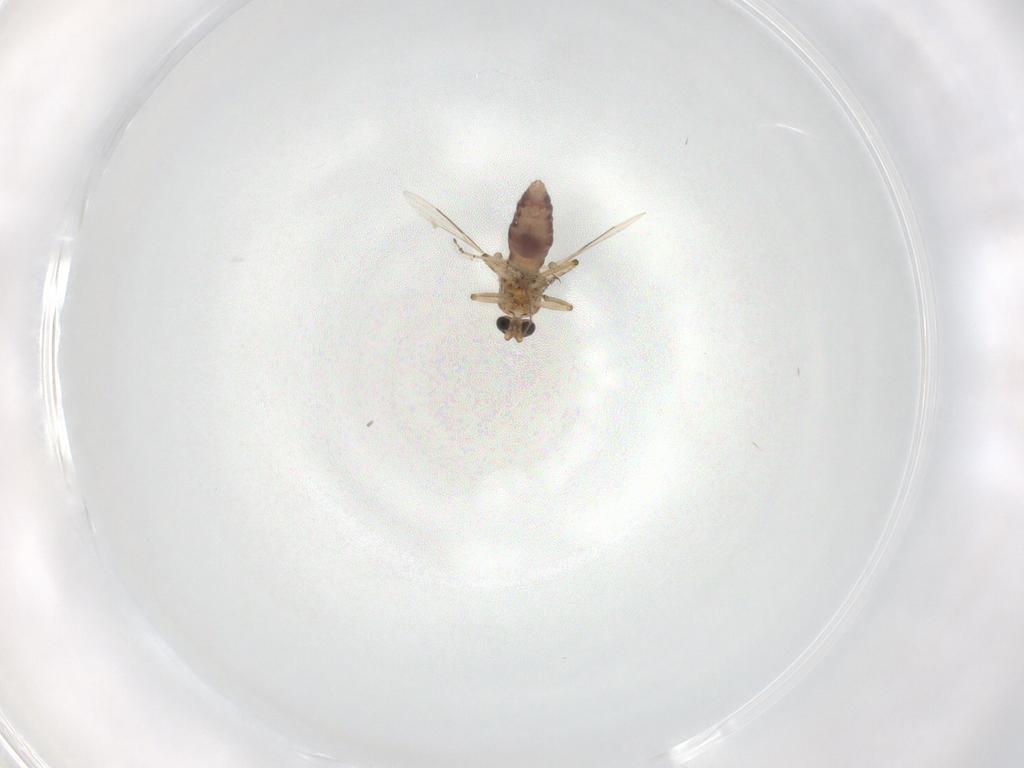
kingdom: Animalia
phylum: Arthropoda
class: Insecta
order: Diptera
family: Ceratopogonidae
